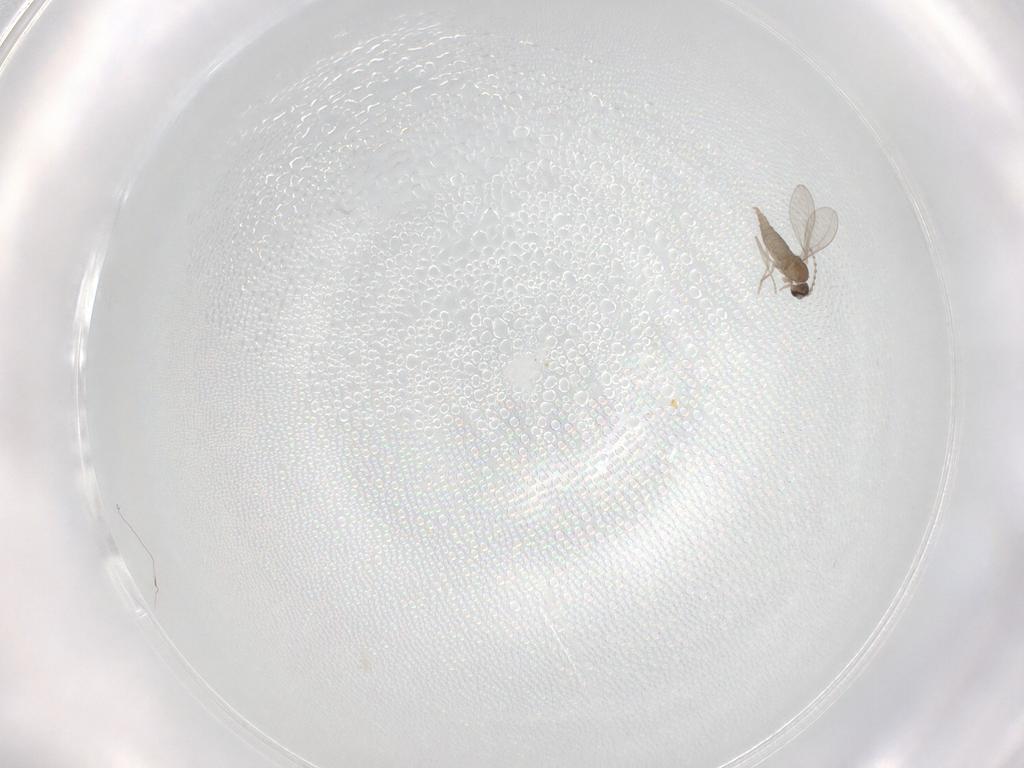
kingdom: Animalia
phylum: Arthropoda
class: Insecta
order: Diptera
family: Cecidomyiidae
